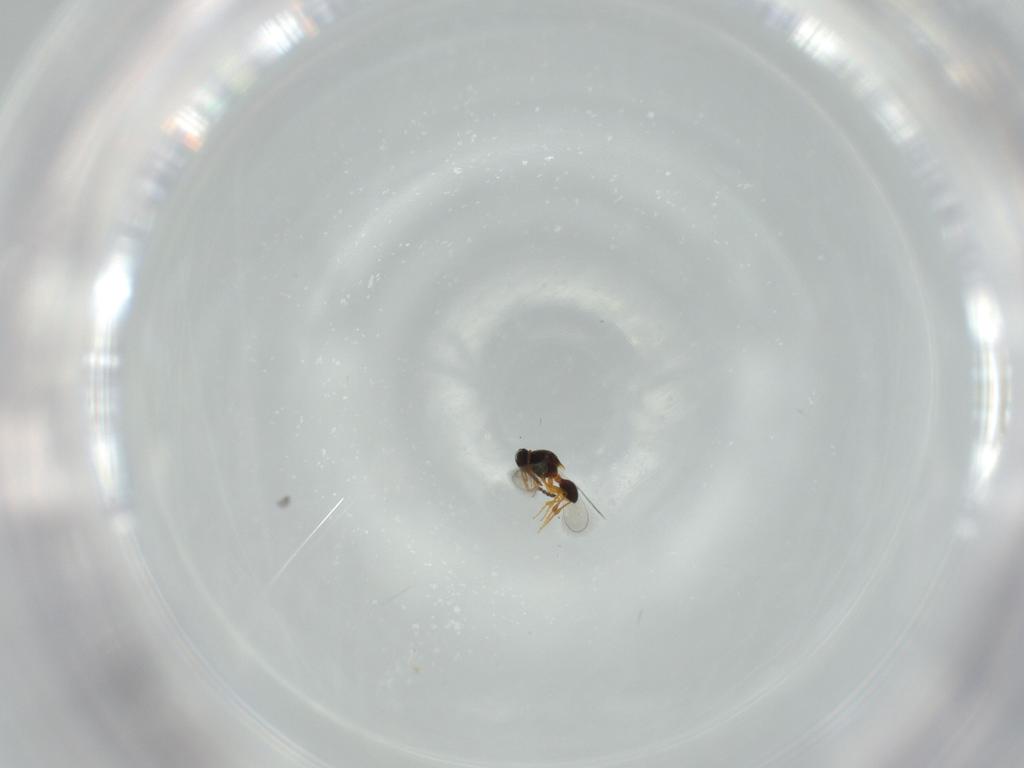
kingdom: Animalia
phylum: Arthropoda
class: Insecta
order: Hymenoptera
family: Platygastridae
